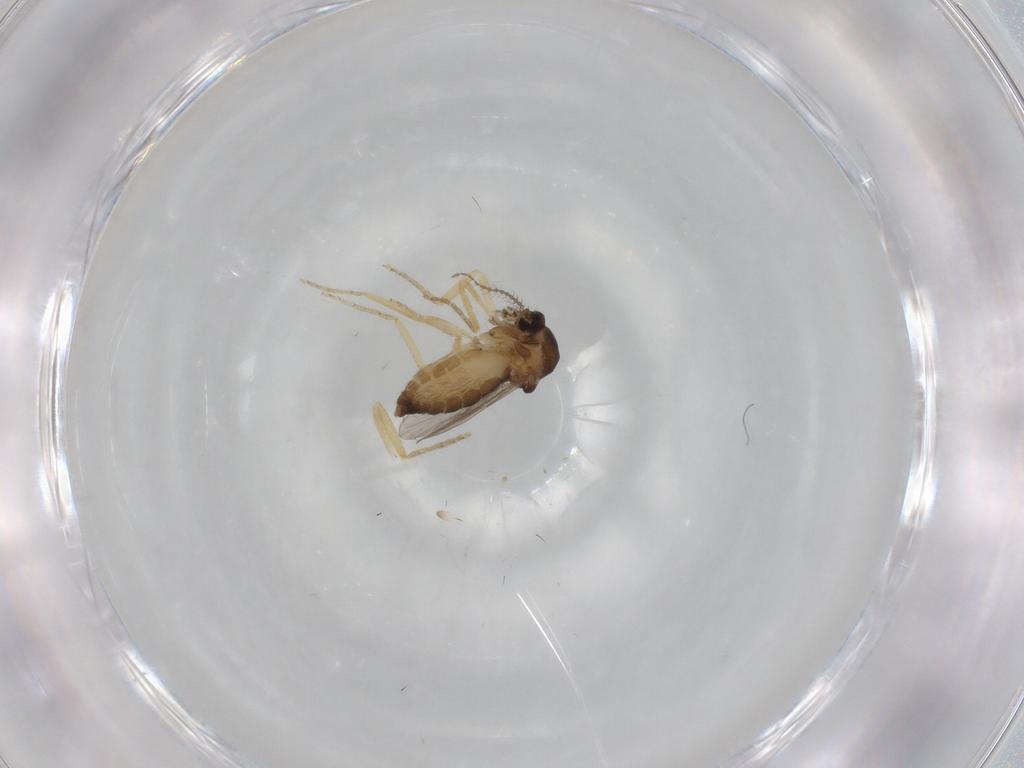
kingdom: Animalia
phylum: Arthropoda
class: Insecta
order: Diptera
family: Ceratopogonidae
